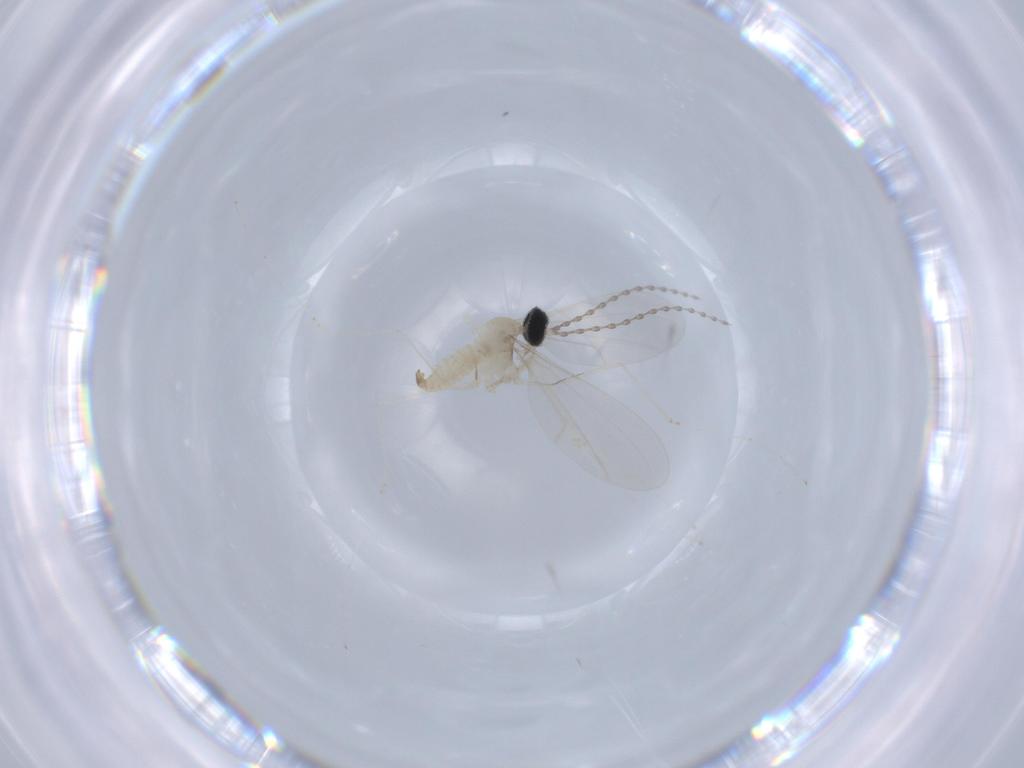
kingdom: Animalia
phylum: Arthropoda
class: Insecta
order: Diptera
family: Cecidomyiidae
